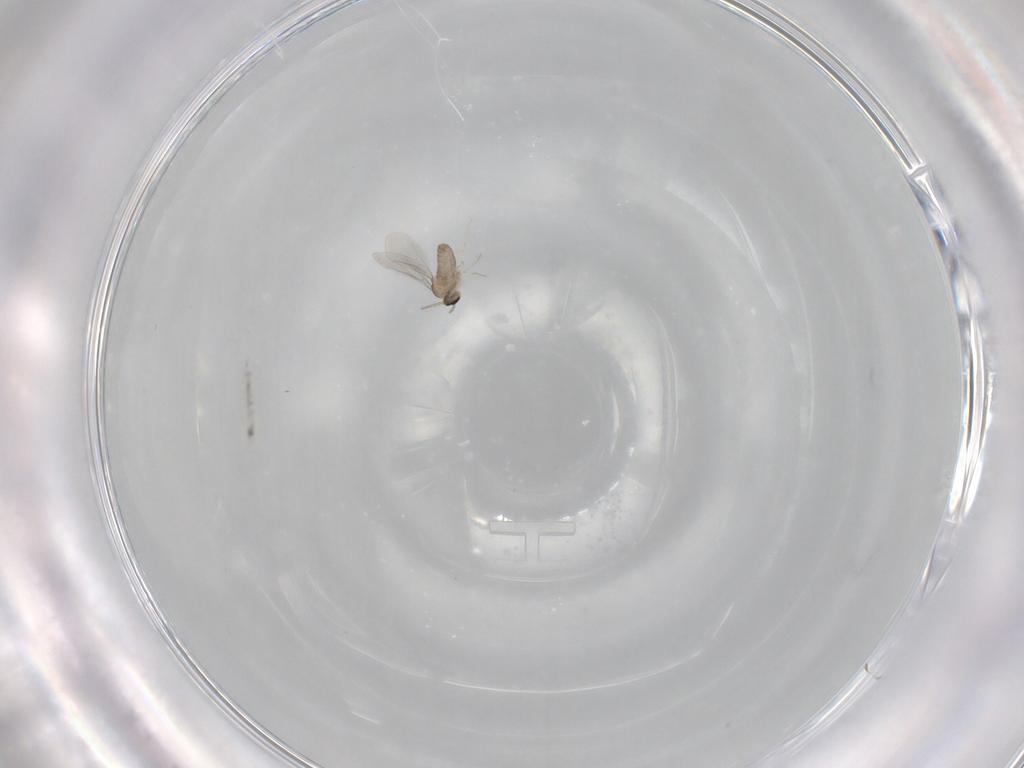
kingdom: Animalia
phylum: Arthropoda
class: Insecta
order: Diptera
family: Cecidomyiidae
